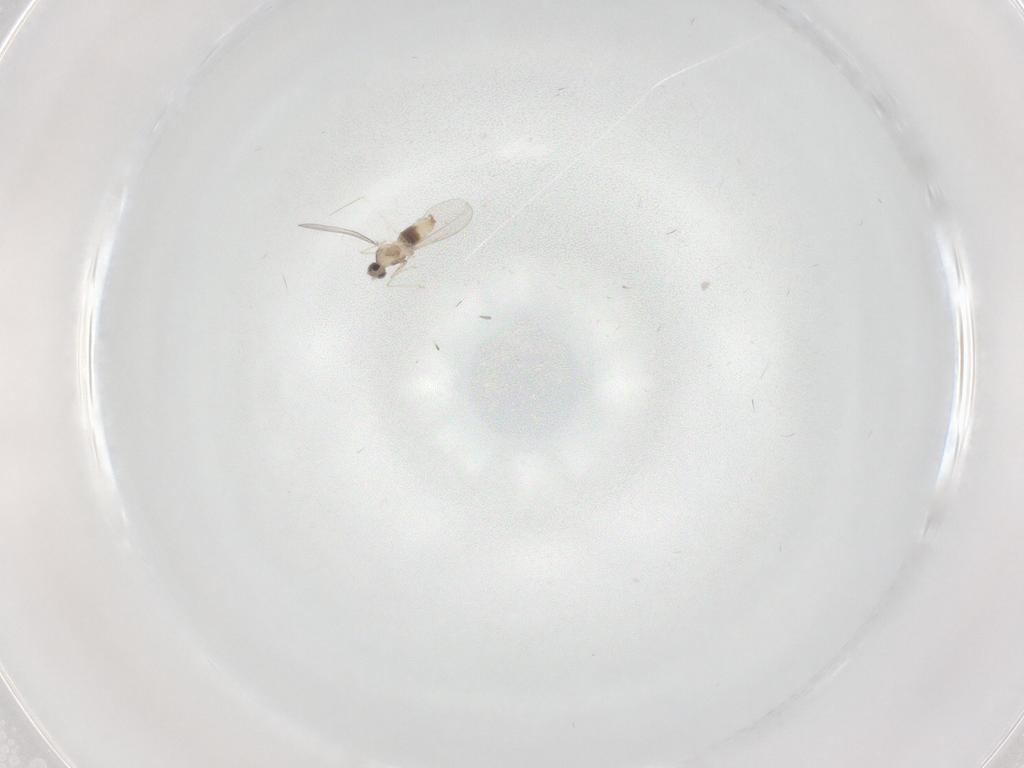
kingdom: Animalia
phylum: Arthropoda
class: Insecta
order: Diptera
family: Cecidomyiidae
